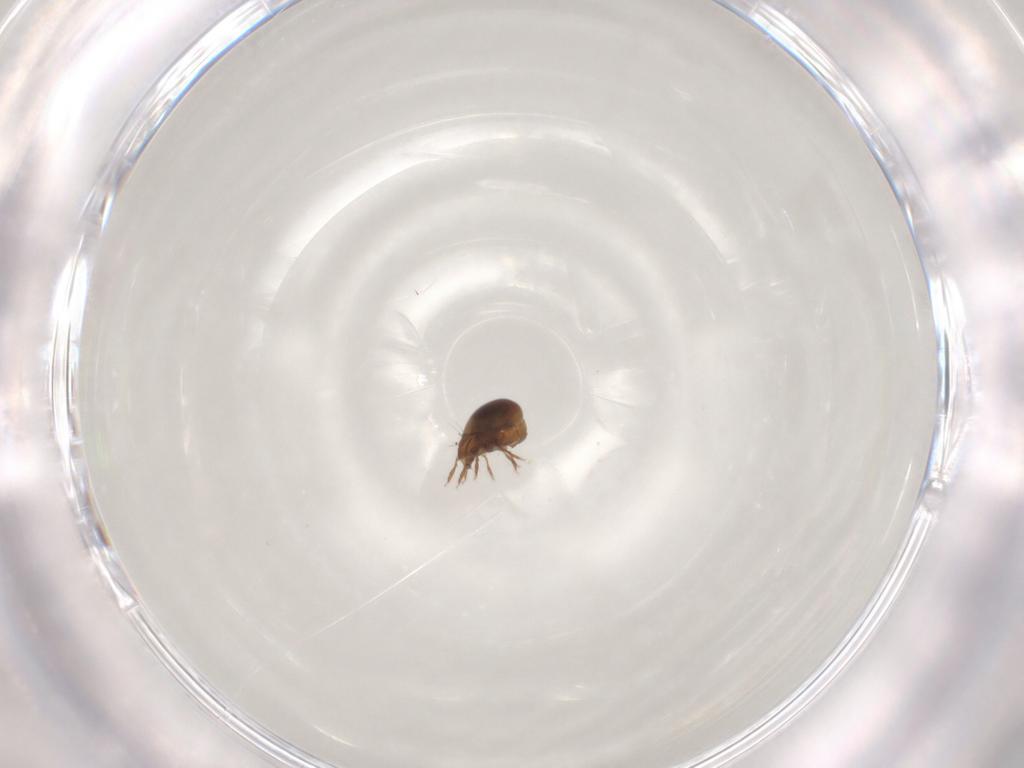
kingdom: Animalia
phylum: Arthropoda
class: Arachnida
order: Sarcoptiformes
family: Humerobatidae
